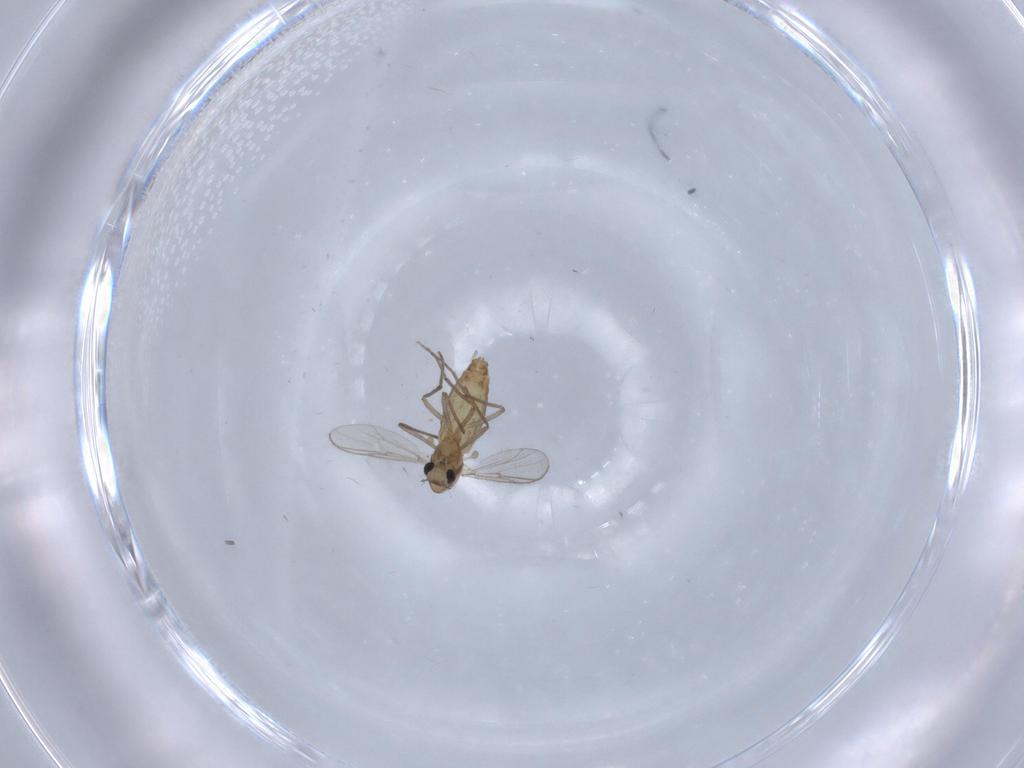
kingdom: Animalia
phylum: Arthropoda
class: Insecta
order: Diptera
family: Chironomidae
